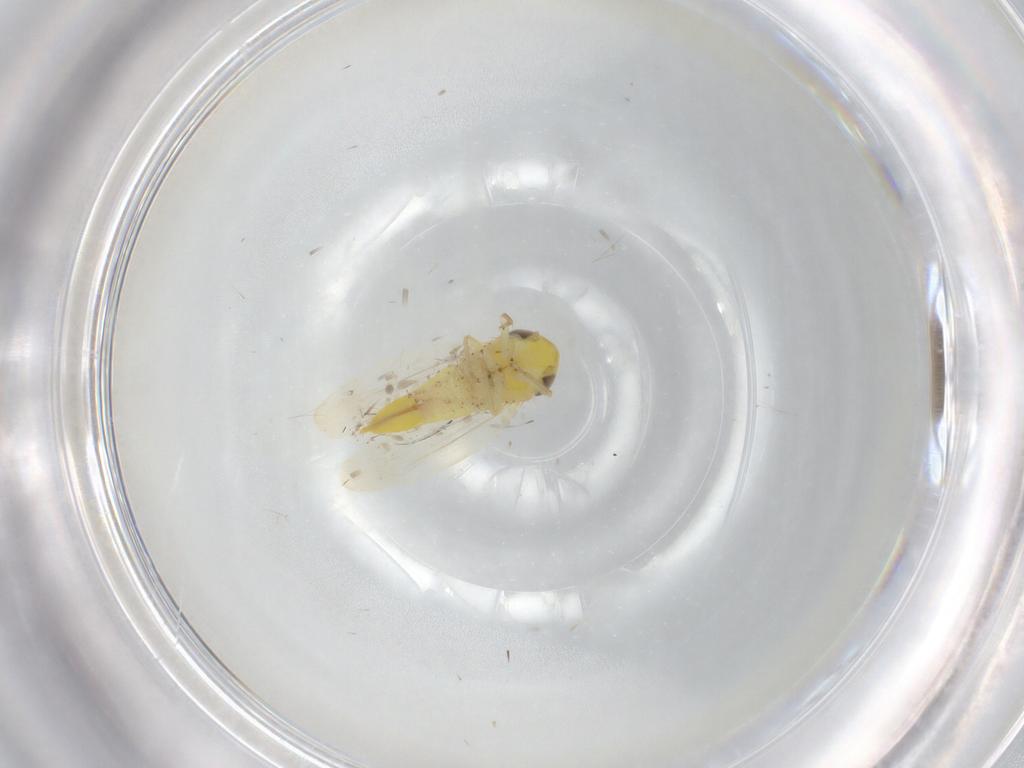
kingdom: Animalia
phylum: Arthropoda
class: Insecta
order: Hemiptera
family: Cicadellidae
